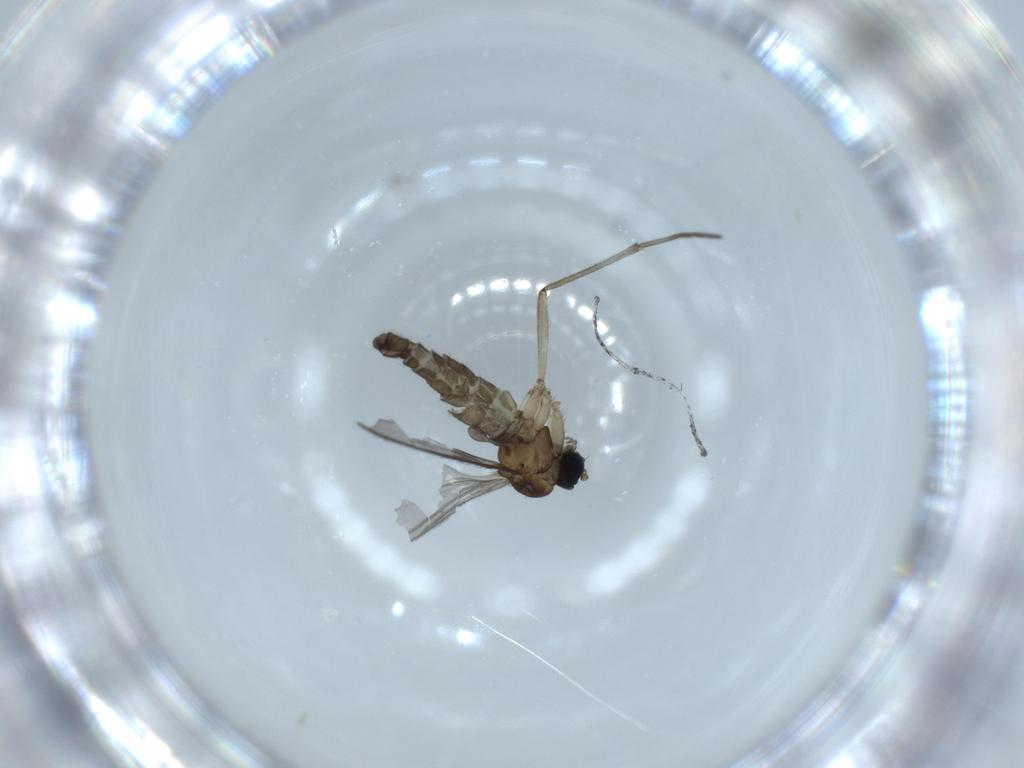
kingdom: Animalia
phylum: Arthropoda
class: Insecta
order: Diptera
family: Sciaridae
